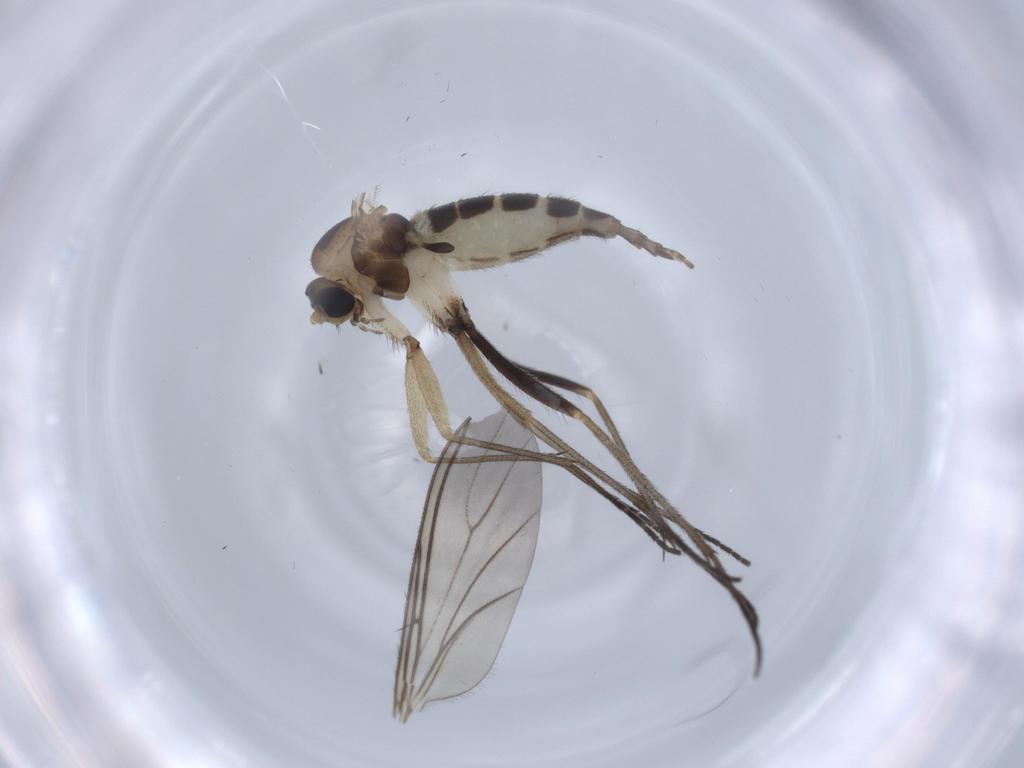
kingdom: Animalia
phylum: Arthropoda
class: Insecta
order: Diptera
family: Sciaridae
